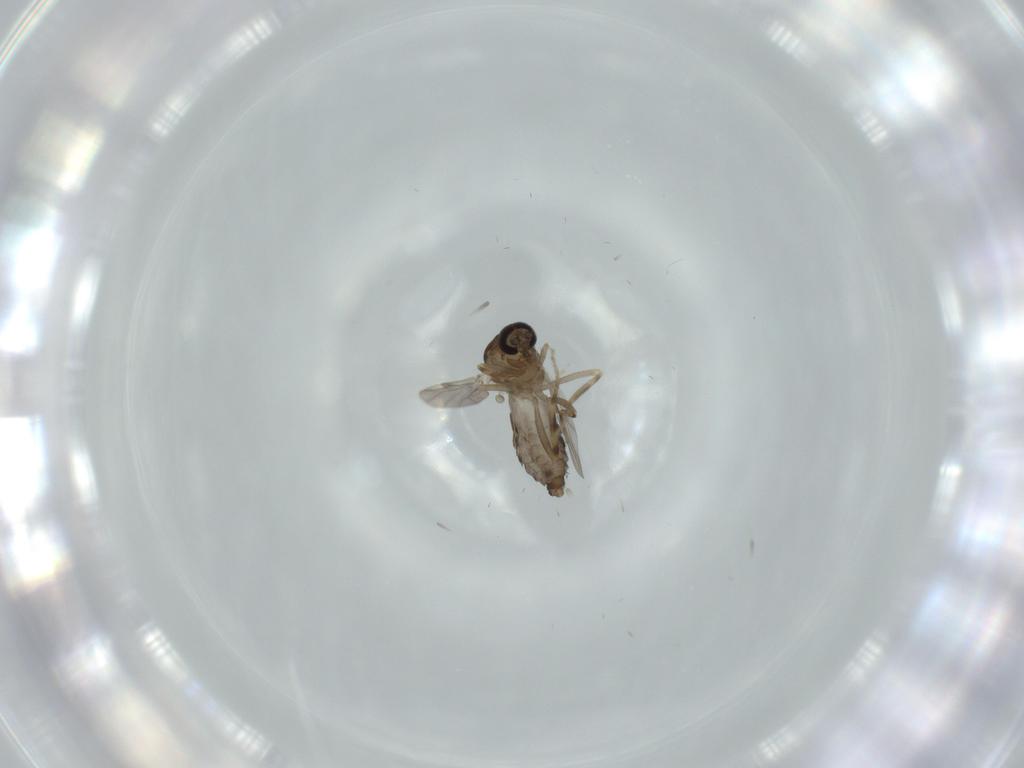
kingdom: Animalia
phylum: Arthropoda
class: Insecta
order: Diptera
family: Ceratopogonidae
